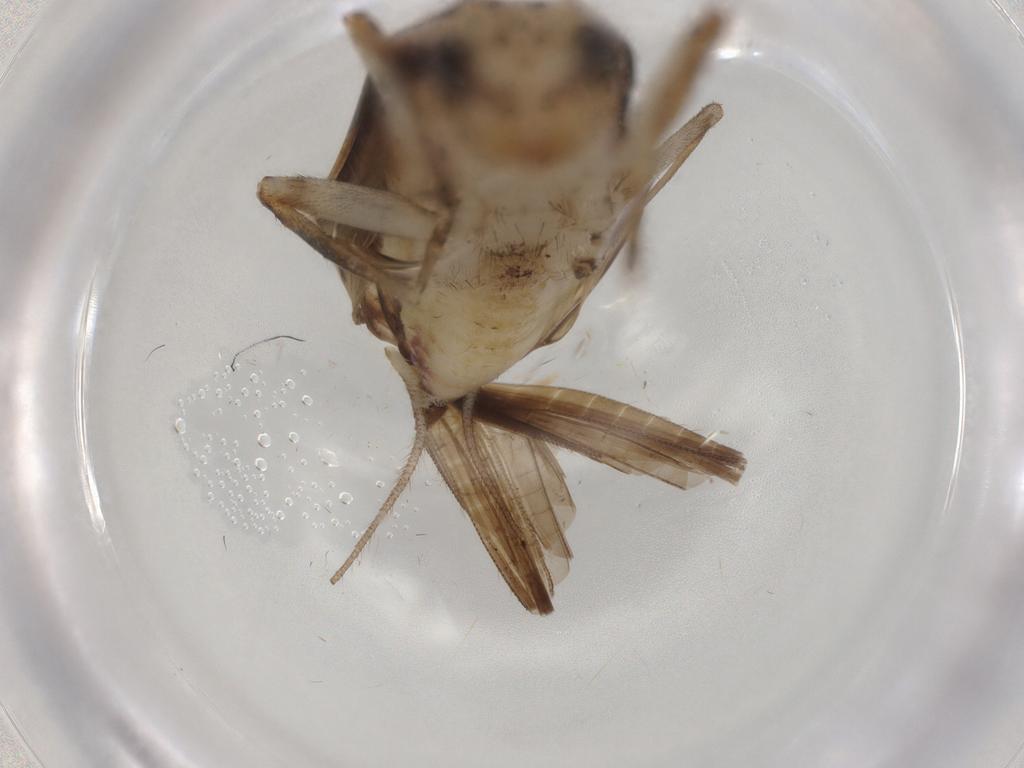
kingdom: Animalia
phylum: Arthropoda
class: Insecta
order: Orthoptera
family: Trigonidiidae
